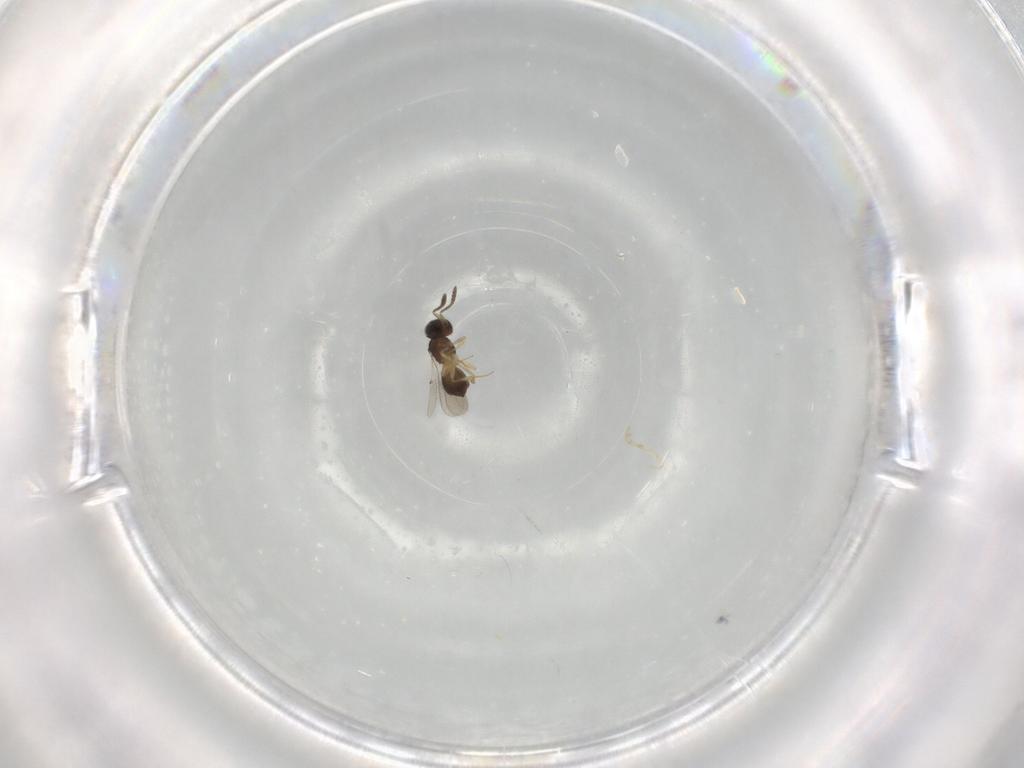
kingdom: Animalia
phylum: Arthropoda
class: Insecta
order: Hymenoptera
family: Scelionidae
